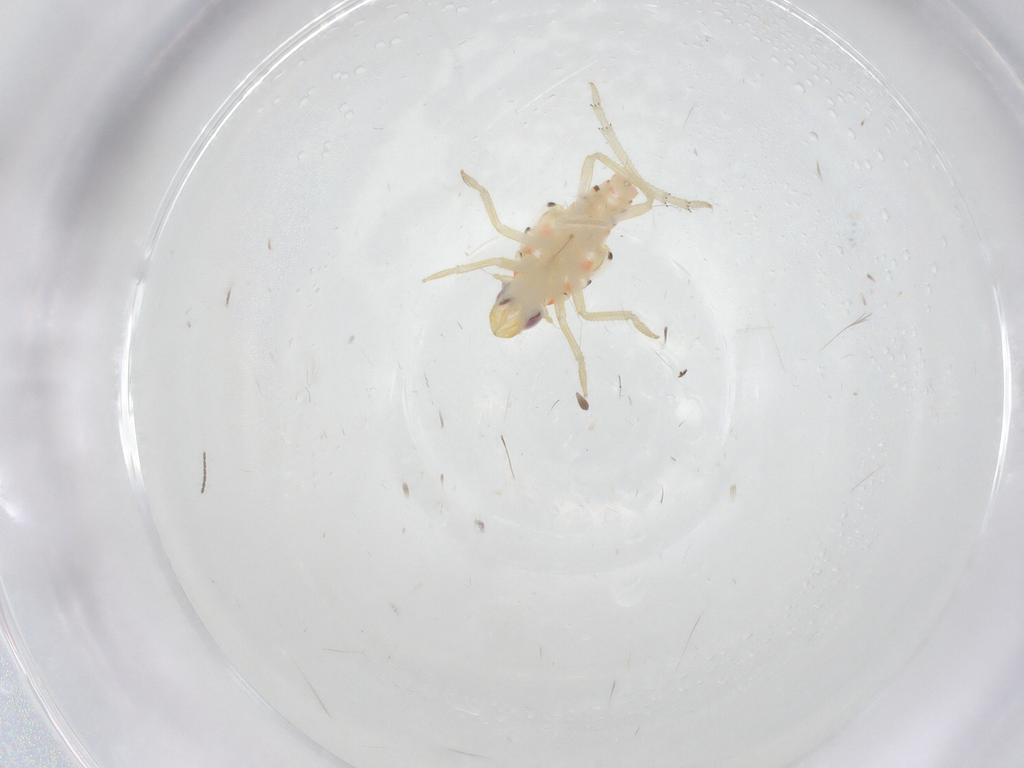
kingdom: Animalia
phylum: Arthropoda
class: Insecta
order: Hemiptera
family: Tropiduchidae
